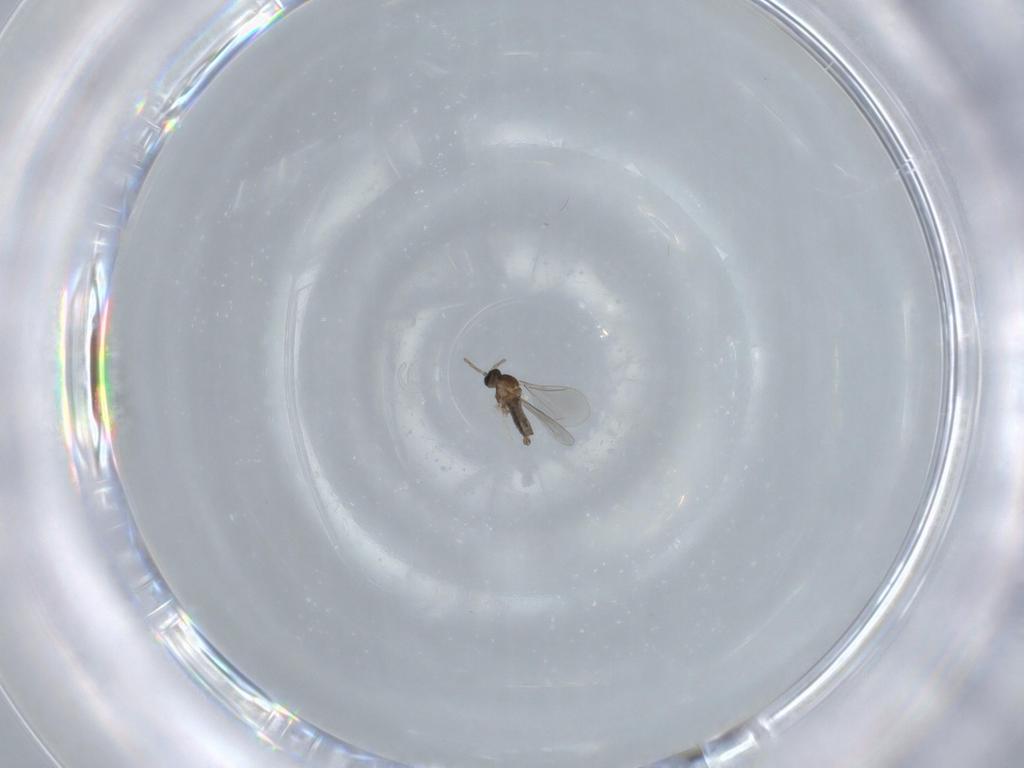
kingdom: Animalia
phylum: Arthropoda
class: Insecta
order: Diptera
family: Cecidomyiidae
